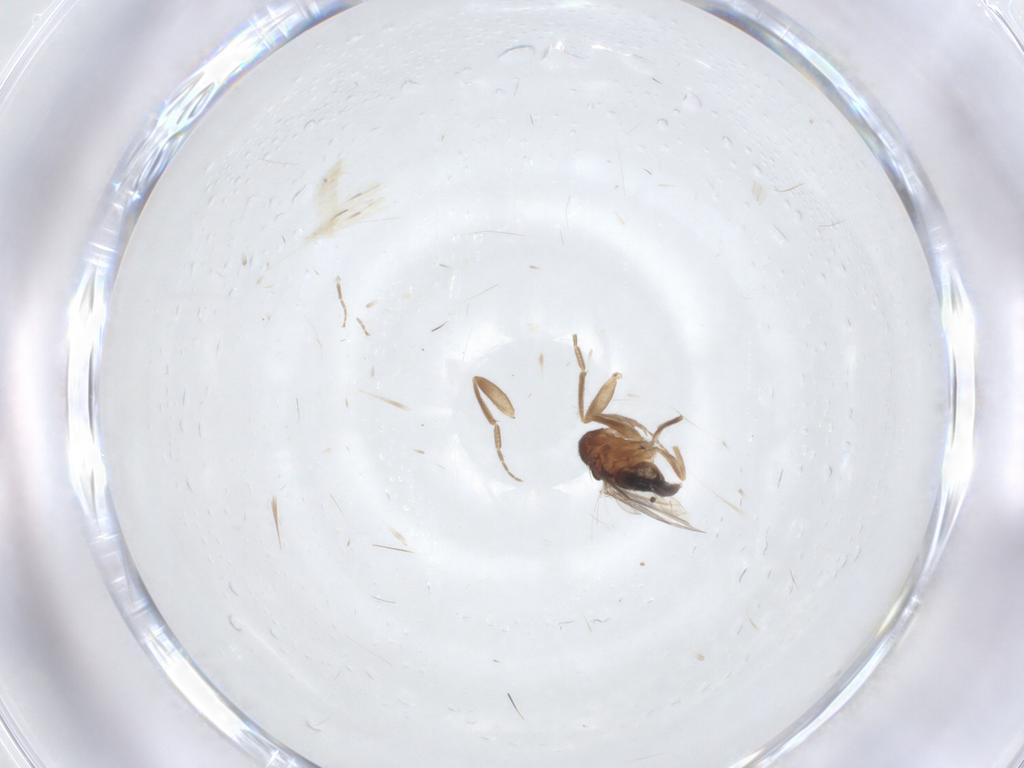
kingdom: Animalia
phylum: Arthropoda
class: Insecta
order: Diptera
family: Phoridae
